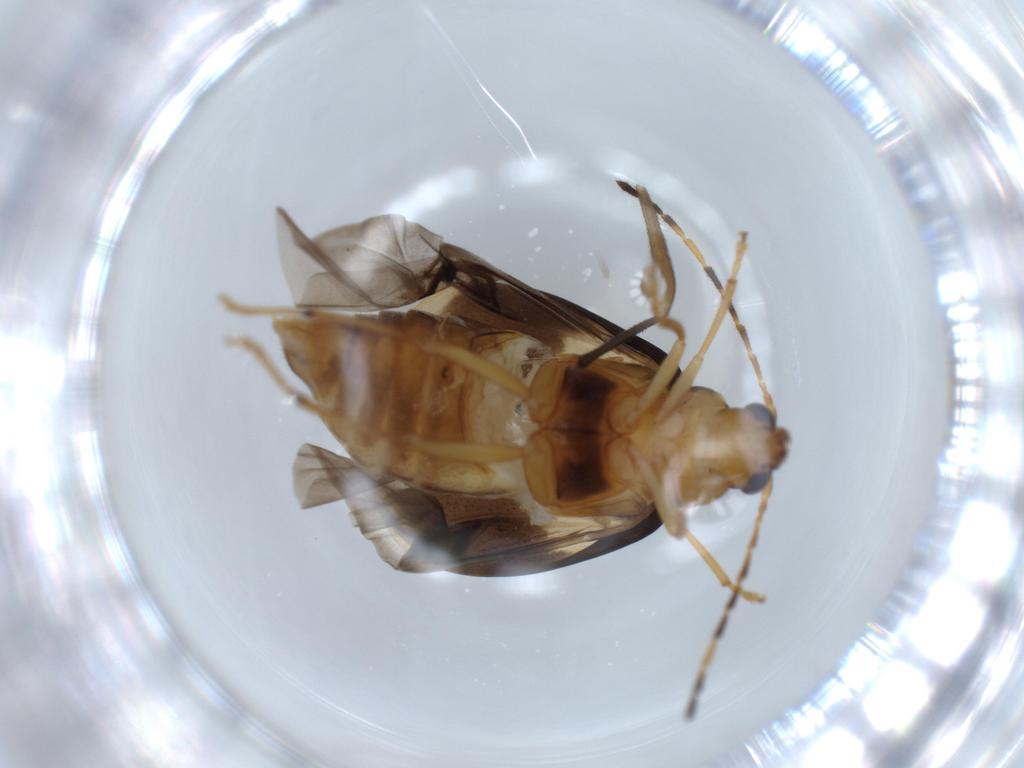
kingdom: Animalia
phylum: Arthropoda
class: Insecta
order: Coleoptera
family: Chrysomelidae
